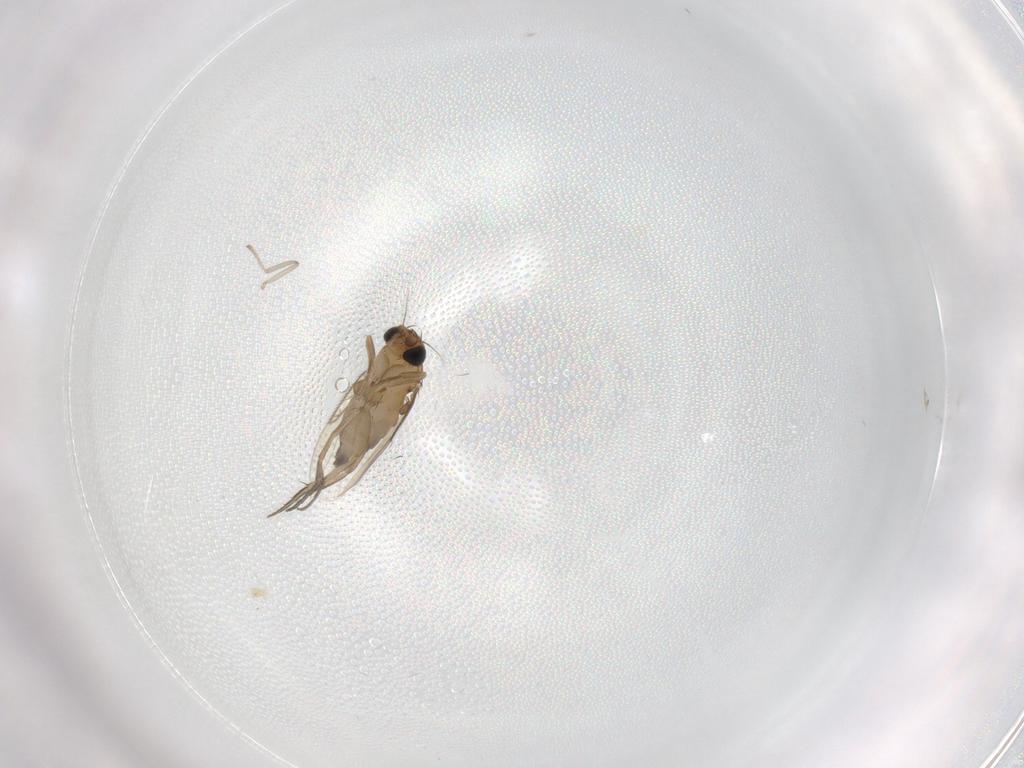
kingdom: Animalia
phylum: Arthropoda
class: Insecta
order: Diptera
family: Phoridae
